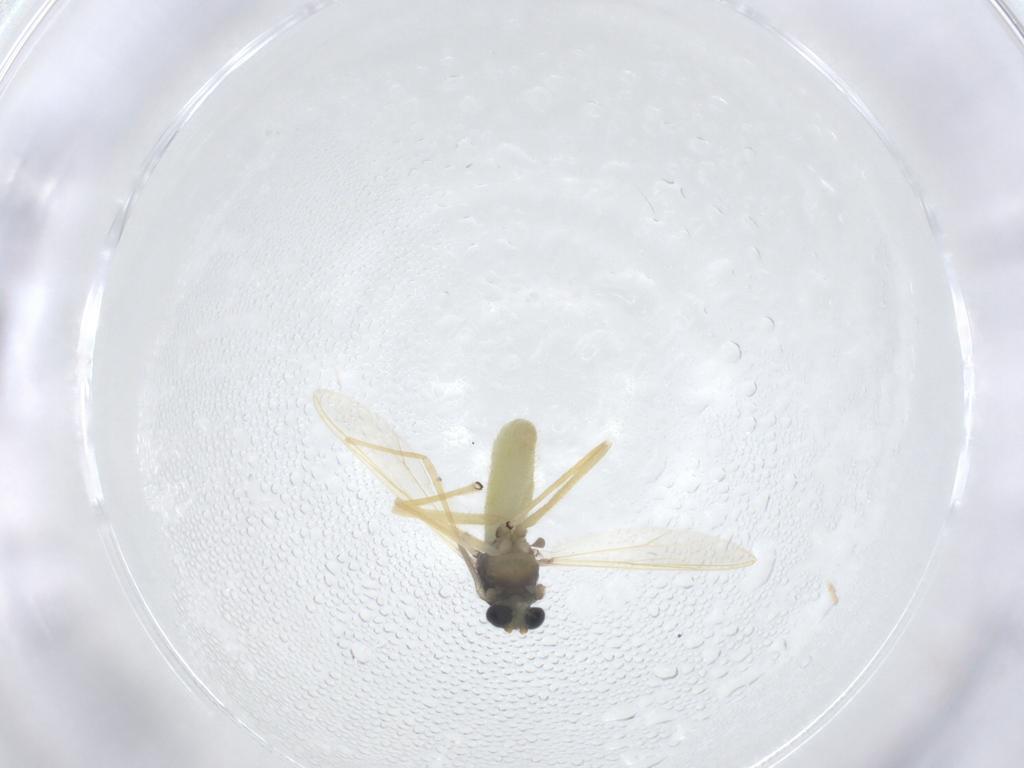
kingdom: Animalia
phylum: Arthropoda
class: Insecta
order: Diptera
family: Chironomidae
